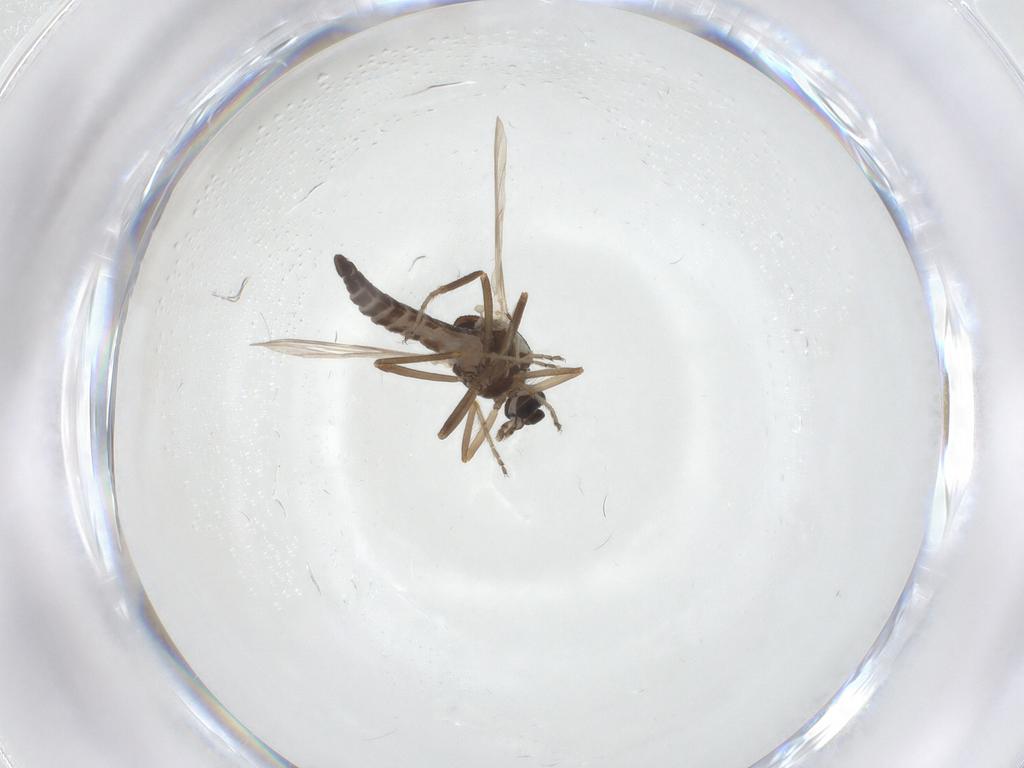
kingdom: Animalia
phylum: Arthropoda
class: Insecta
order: Diptera
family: Ceratopogonidae
